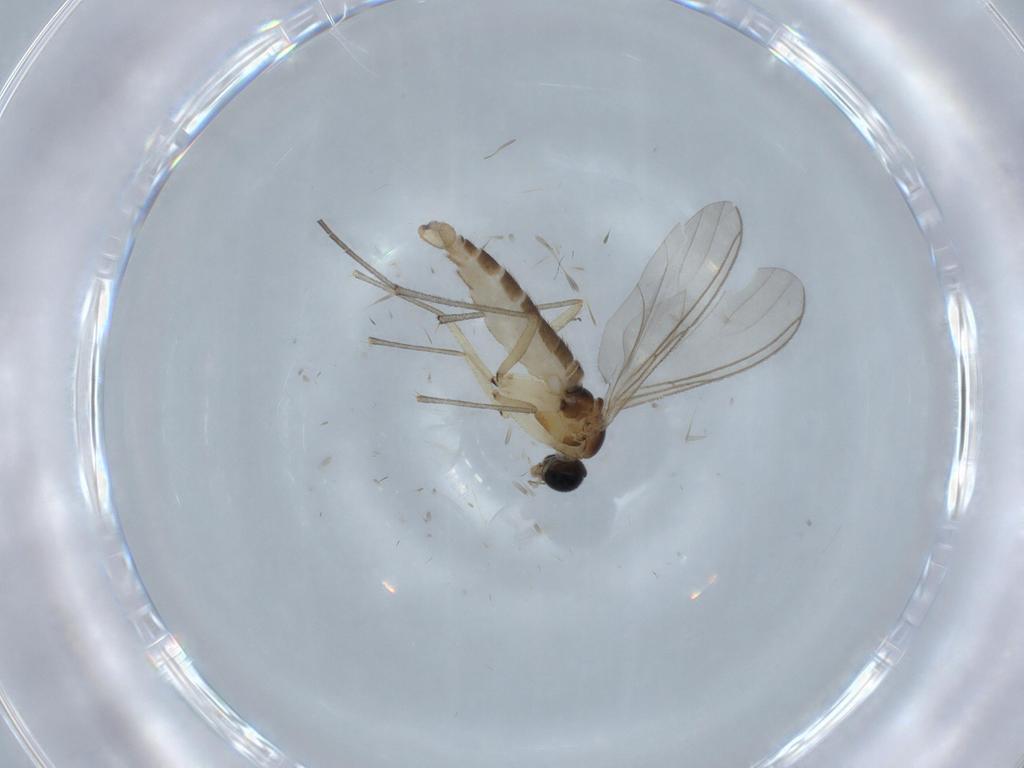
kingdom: Animalia
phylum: Arthropoda
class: Insecta
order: Diptera
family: Sciaridae
